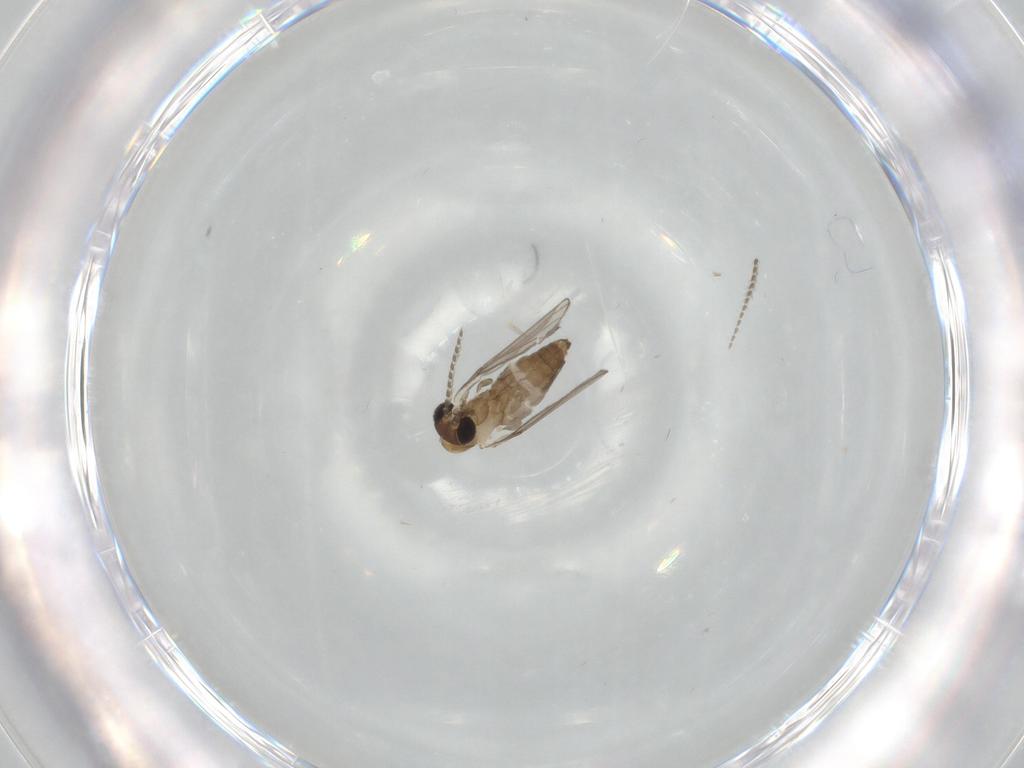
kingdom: Animalia
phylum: Arthropoda
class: Insecta
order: Diptera
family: Psychodidae
